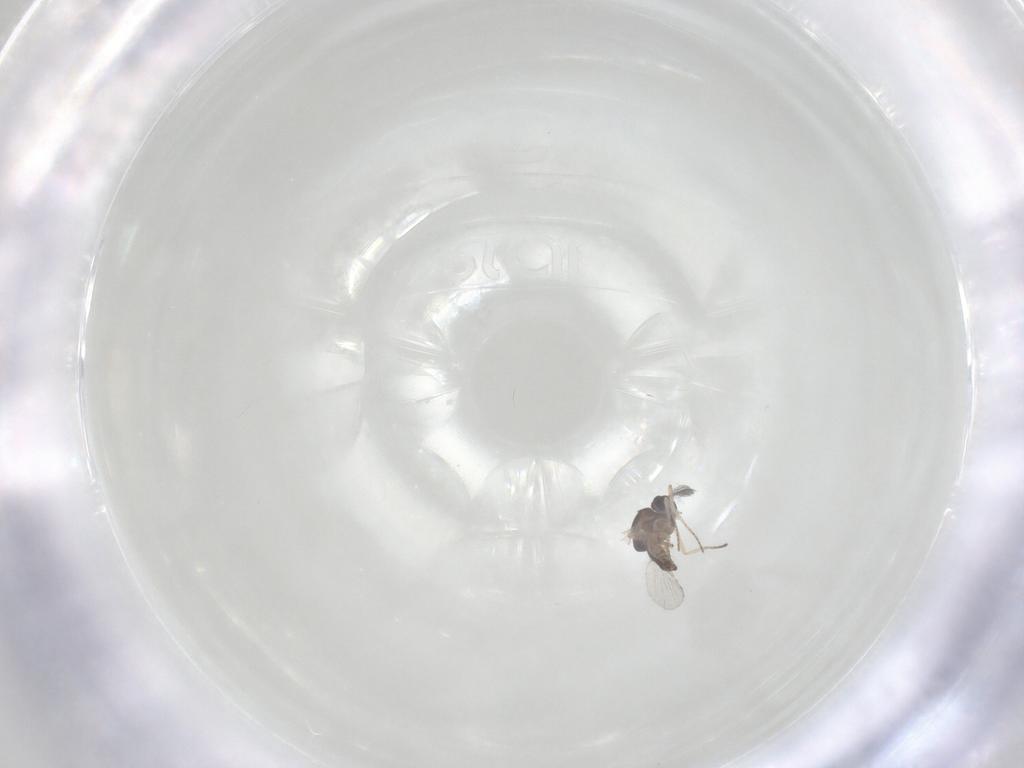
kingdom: Animalia
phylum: Arthropoda
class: Insecta
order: Diptera
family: Ceratopogonidae
